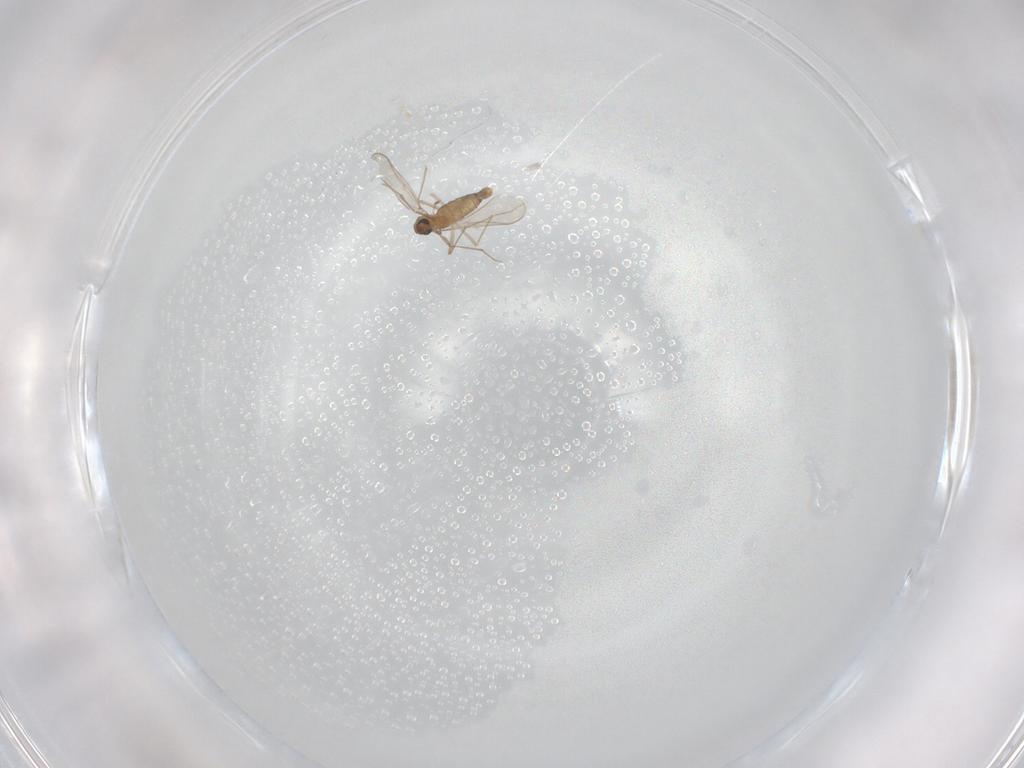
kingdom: Animalia
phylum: Arthropoda
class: Insecta
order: Diptera
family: Chironomidae
